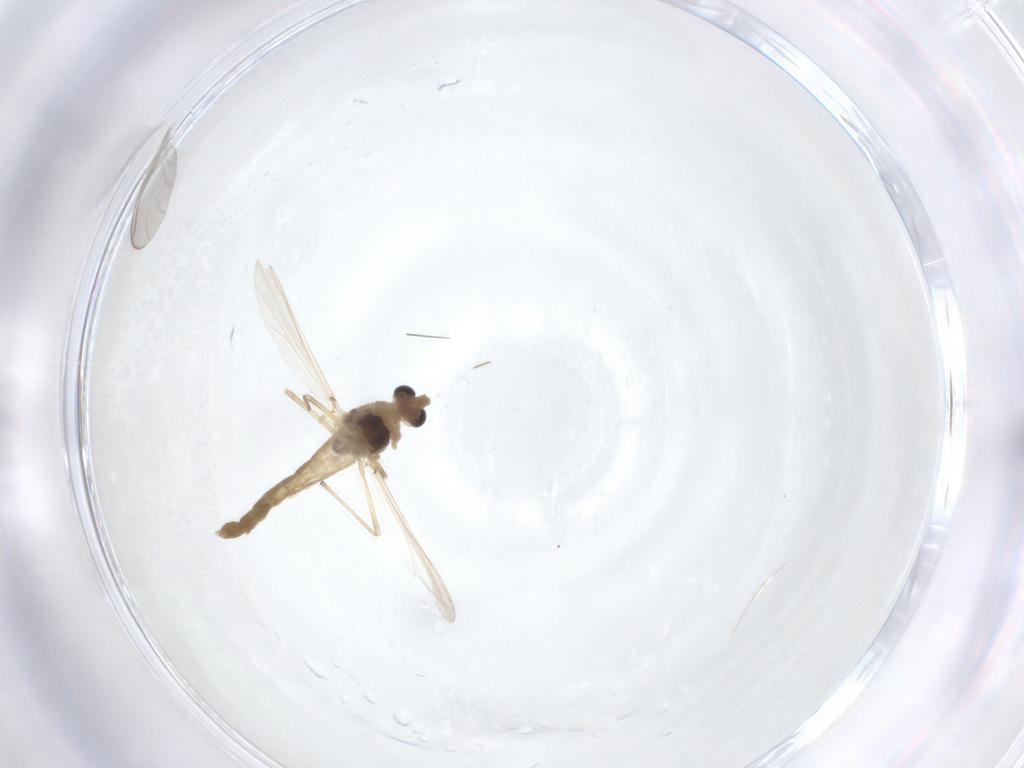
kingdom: Animalia
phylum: Arthropoda
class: Insecta
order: Diptera
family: Chironomidae
